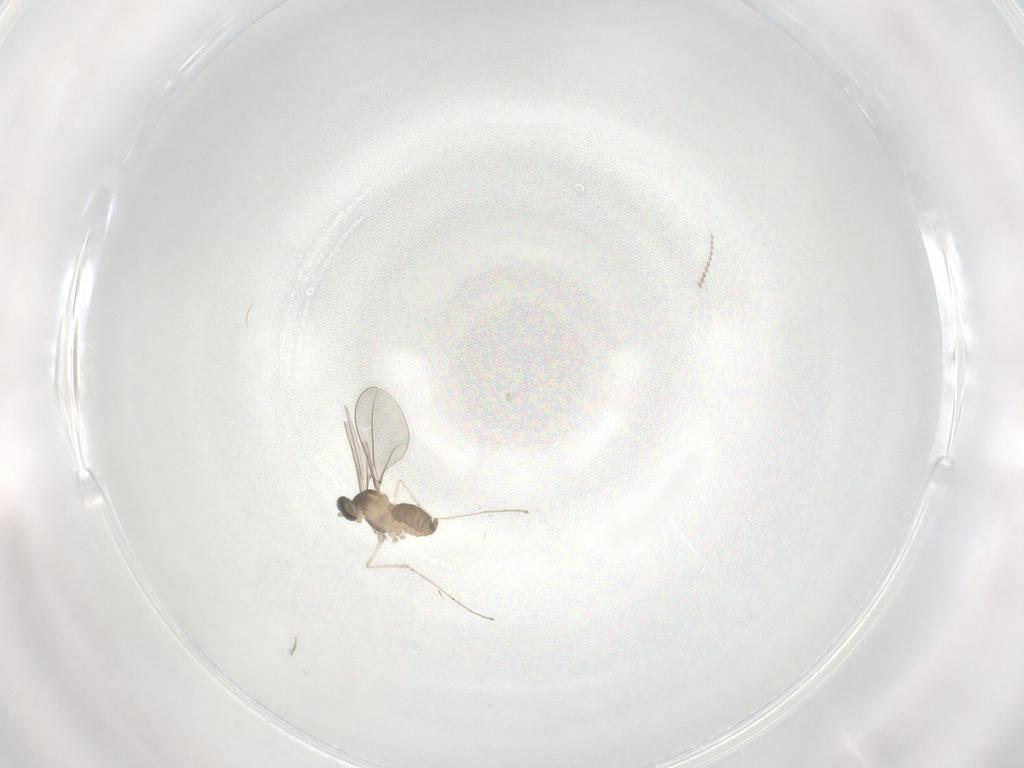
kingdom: Animalia
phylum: Arthropoda
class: Insecta
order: Diptera
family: Cecidomyiidae
